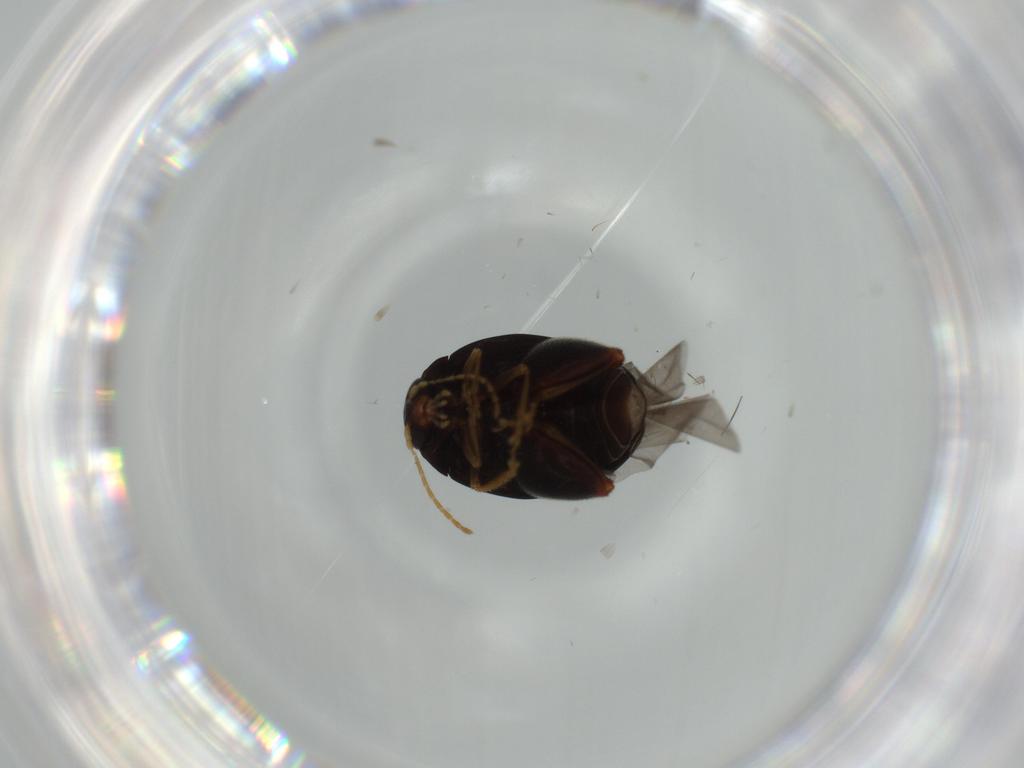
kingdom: Animalia
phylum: Arthropoda
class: Insecta
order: Coleoptera
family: Chrysomelidae
